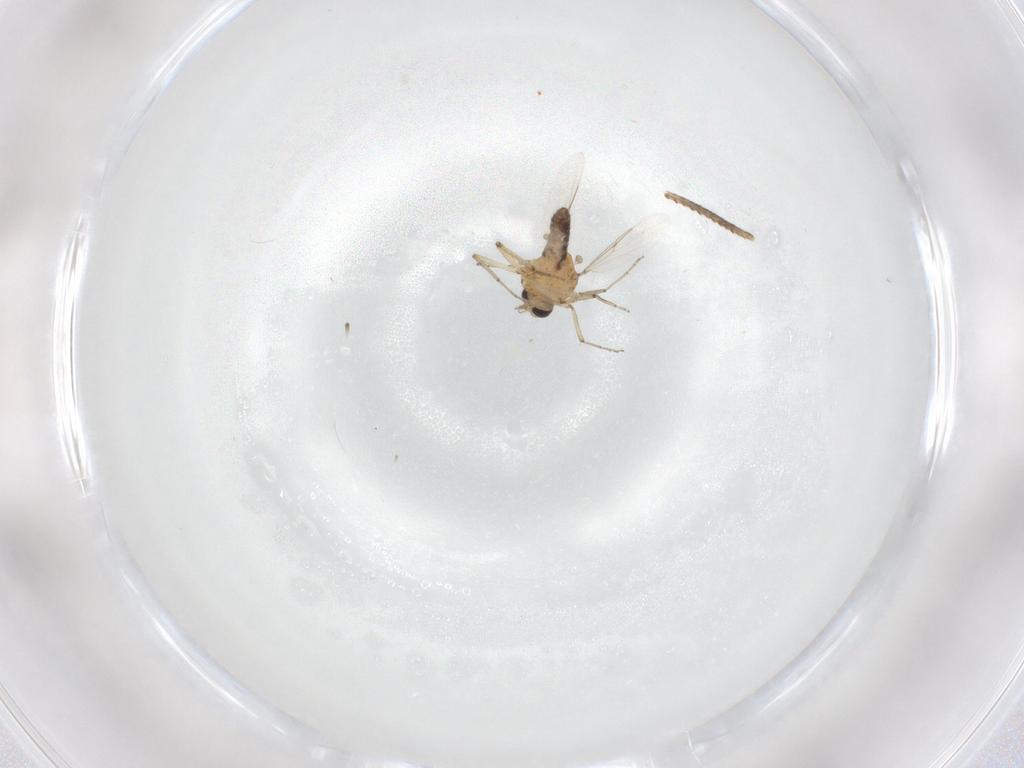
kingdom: Animalia
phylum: Arthropoda
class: Insecta
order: Diptera
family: Ceratopogonidae
